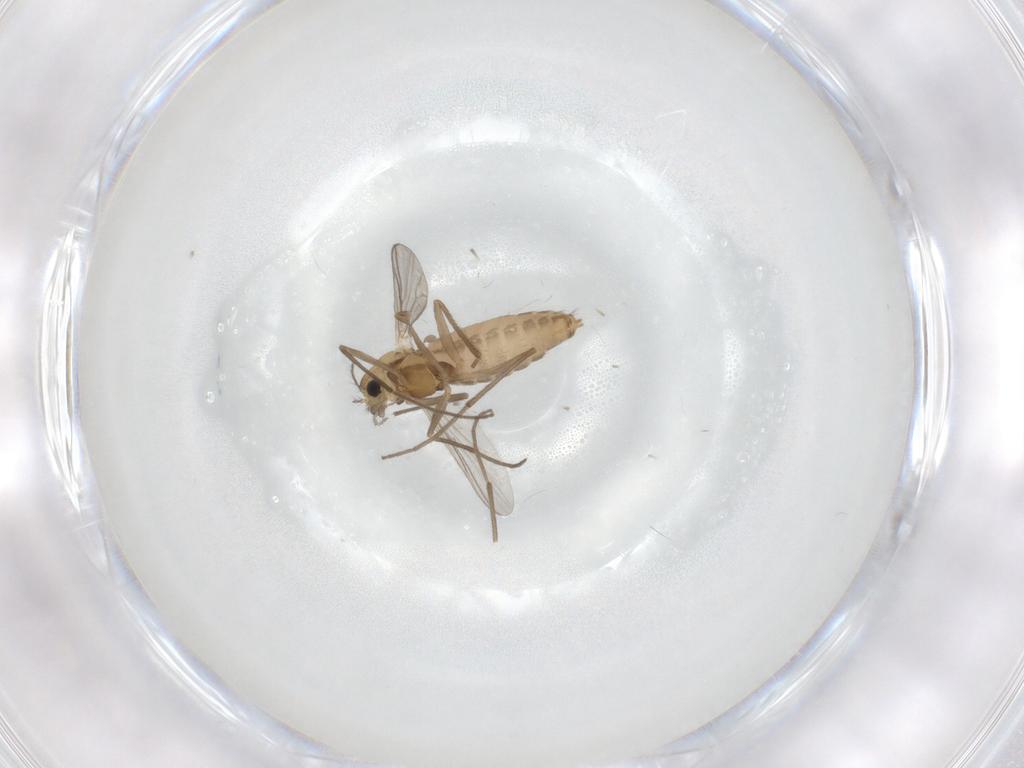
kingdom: Animalia
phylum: Arthropoda
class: Insecta
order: Diptera
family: Chironomidae
